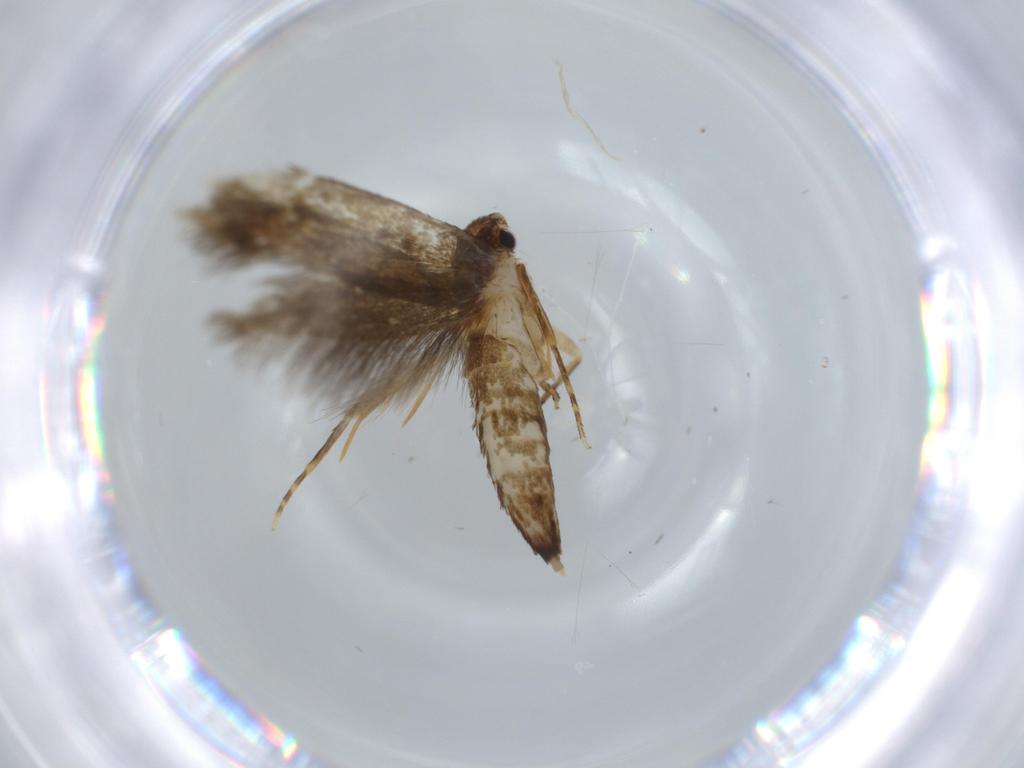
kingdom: Animalia
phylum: Arthropoda
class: Insecta
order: Lepidoptera
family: Tineidae
